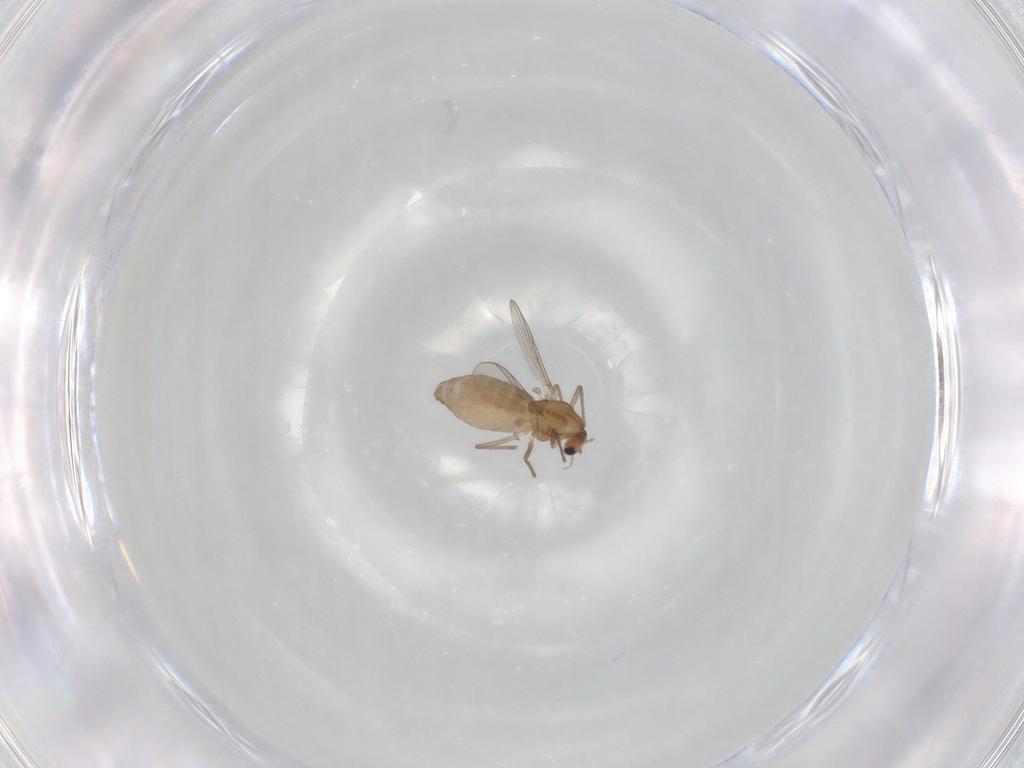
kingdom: Animalia
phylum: Arthropoda
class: Insecta
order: Diptera
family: Chironomidae
